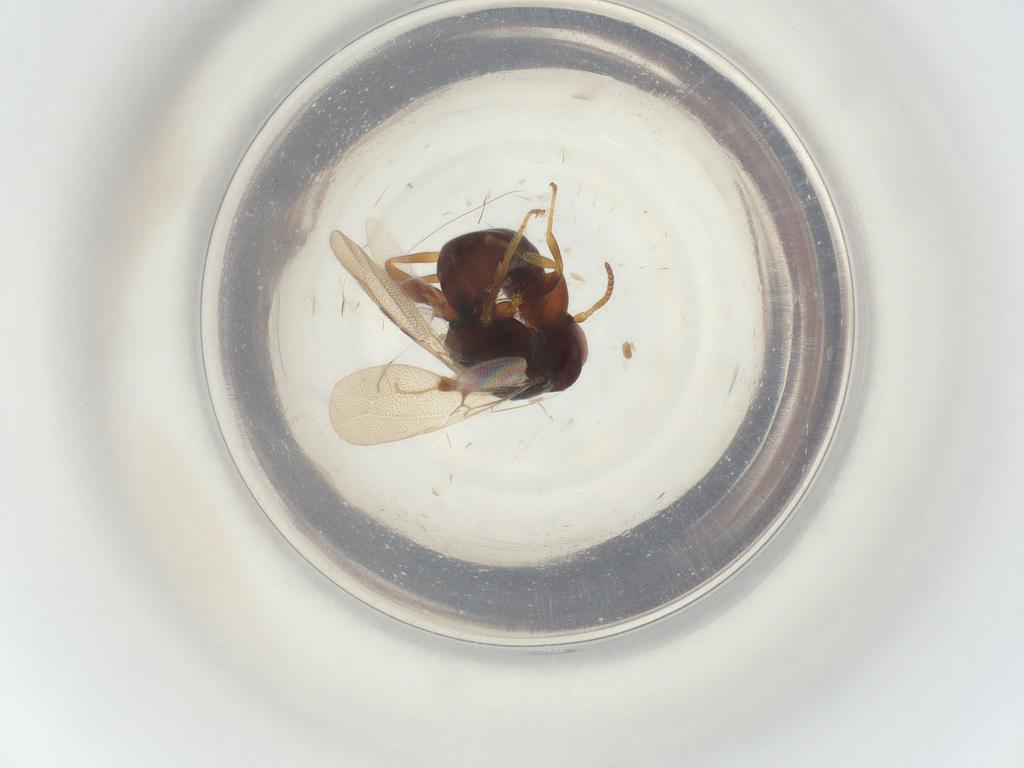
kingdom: Animalia
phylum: Arthropoda
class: Insecta
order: Hymenoptera
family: Bethylidae
